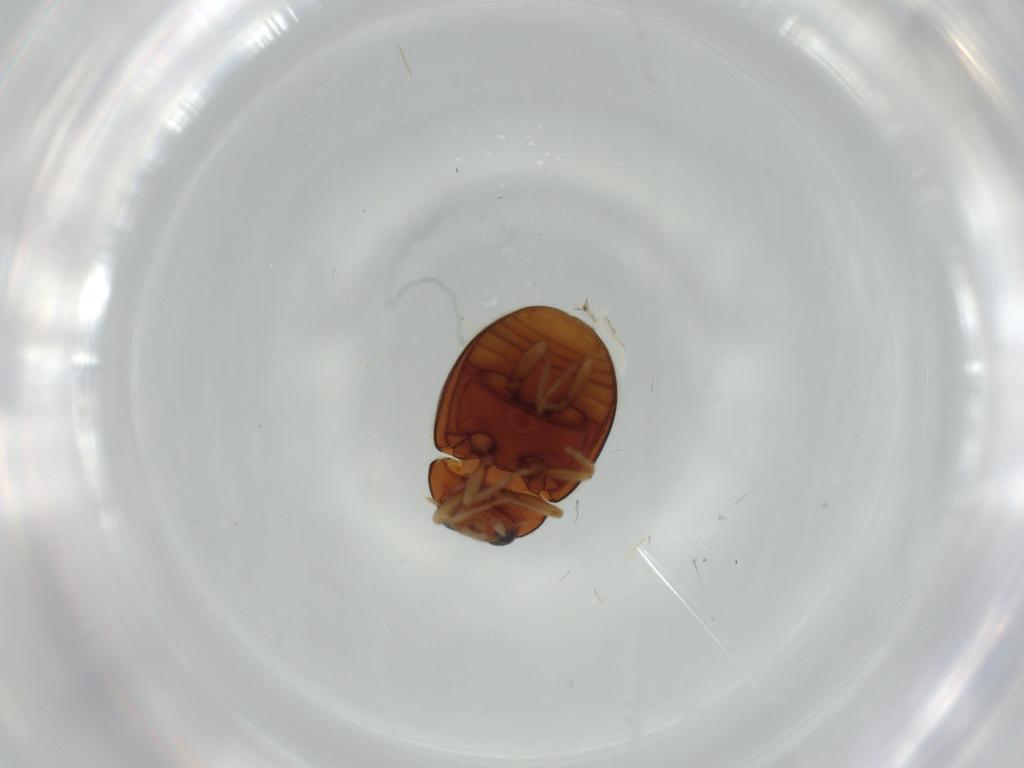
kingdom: Animalia
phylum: Arthropoda
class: Insecta
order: Coleoptera
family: Attelabidae
